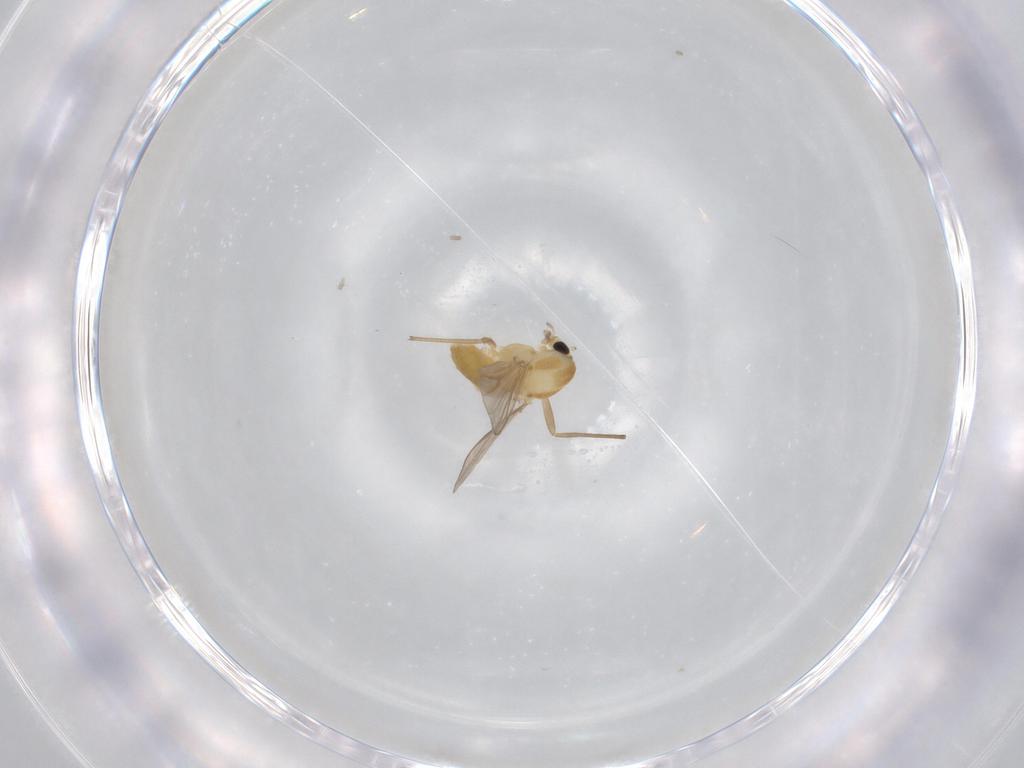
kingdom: Animalia
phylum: Arthropoda
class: Insecta
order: Diptera
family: Chironomidae
